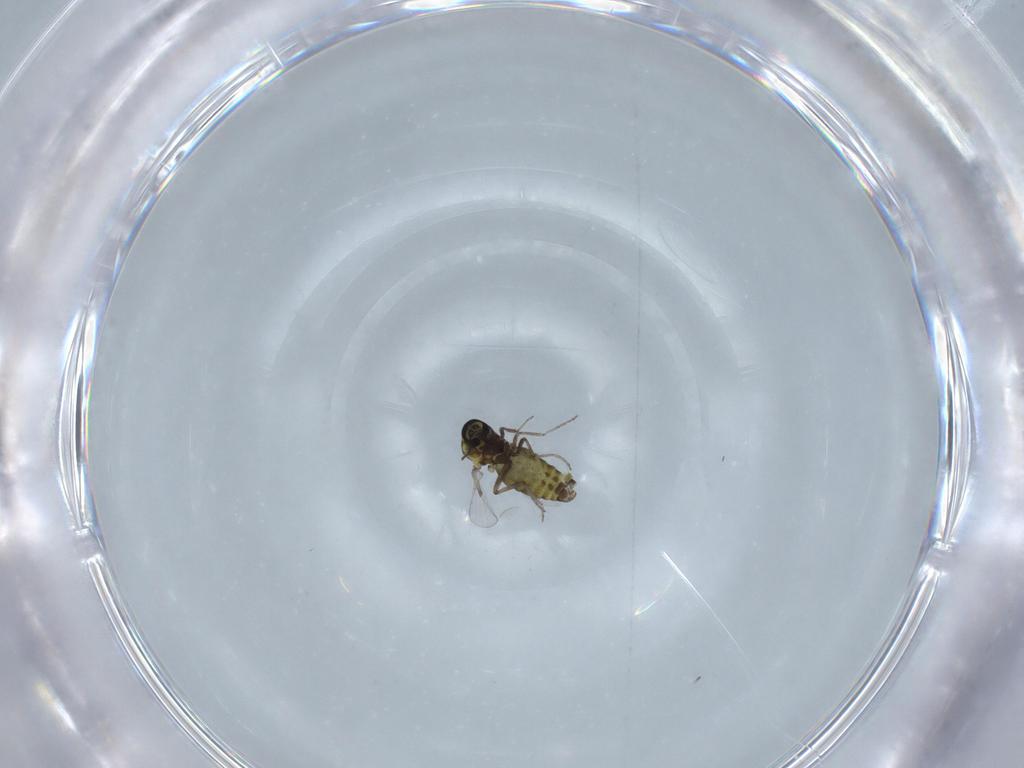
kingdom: Animalia
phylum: Arthropoda
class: Insecta
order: Diptera
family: Ceratopogonidae
